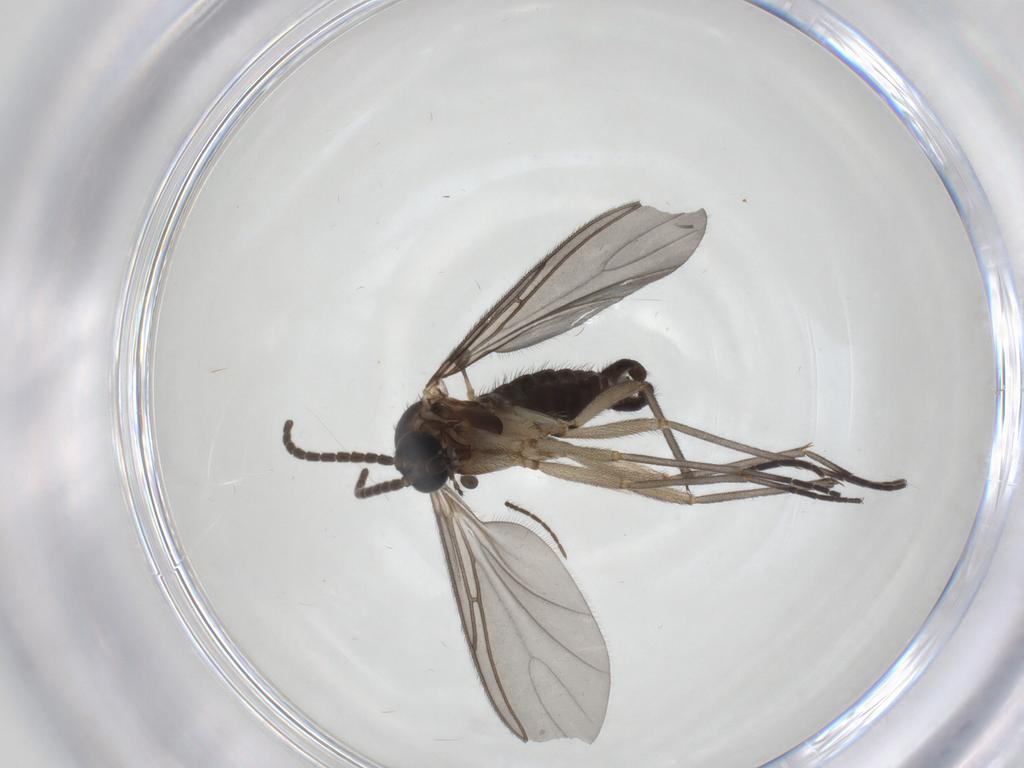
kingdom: Animalia
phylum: Arthropoda
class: Insecta
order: Diptera
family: Sciaridae
